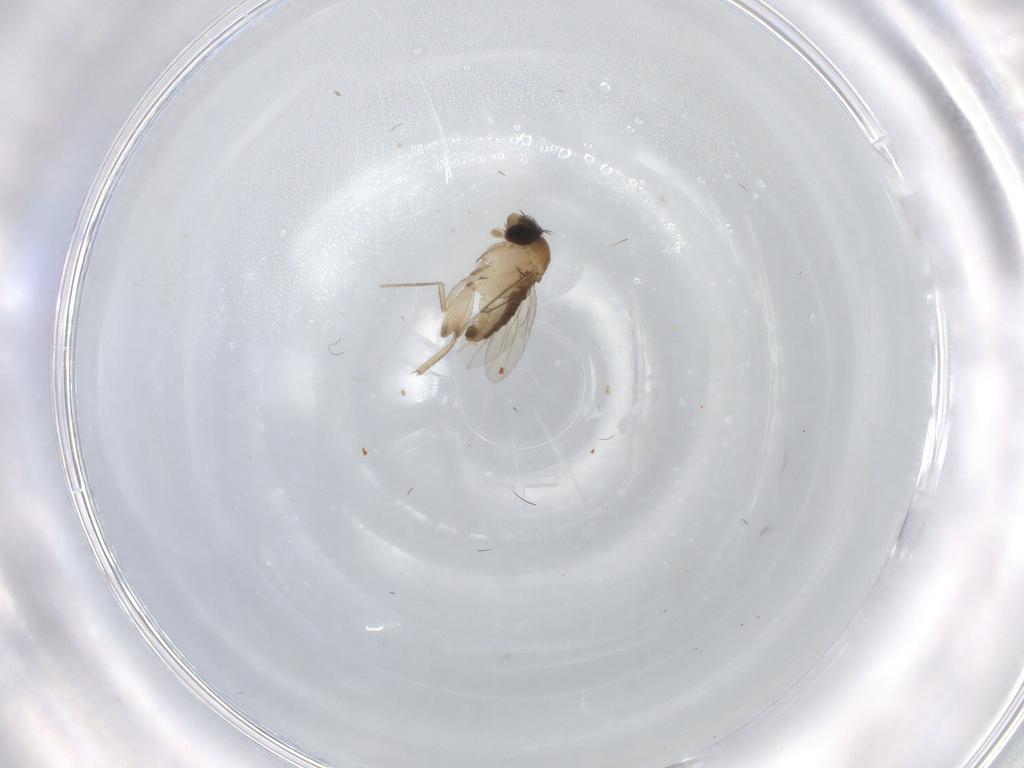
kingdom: Animalia
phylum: Arthropoda
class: Insecta
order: Diptera
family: Phoridae
